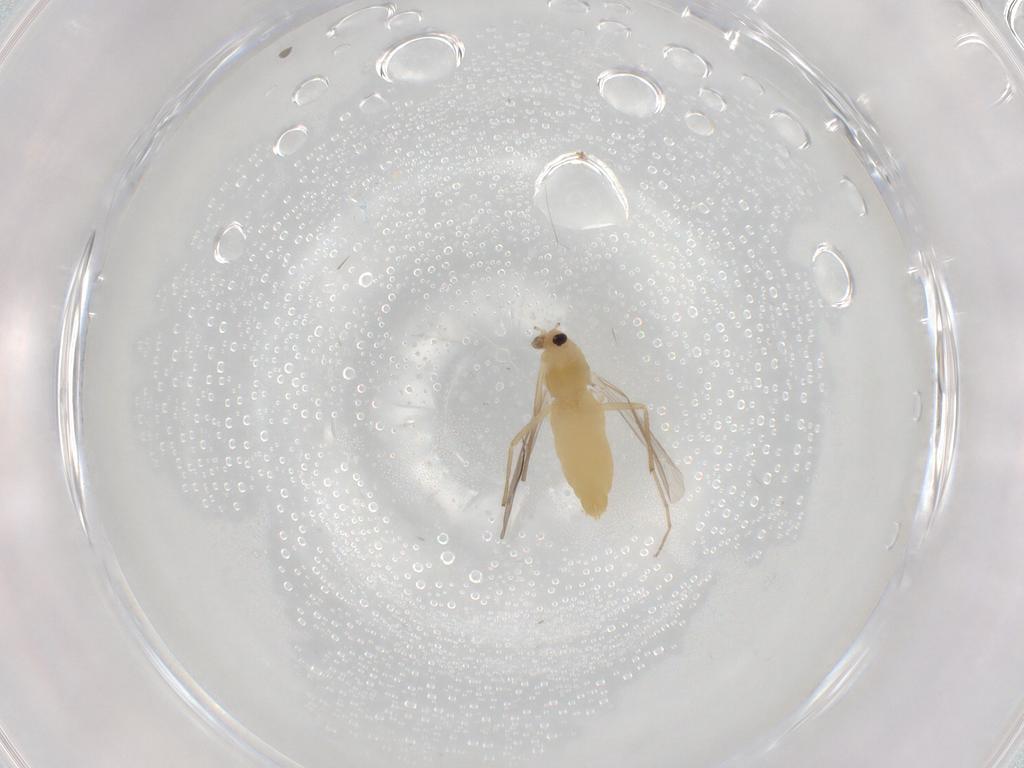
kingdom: Animalia
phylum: Arthropoda
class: Insecta
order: Diptera
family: Chironomidae
